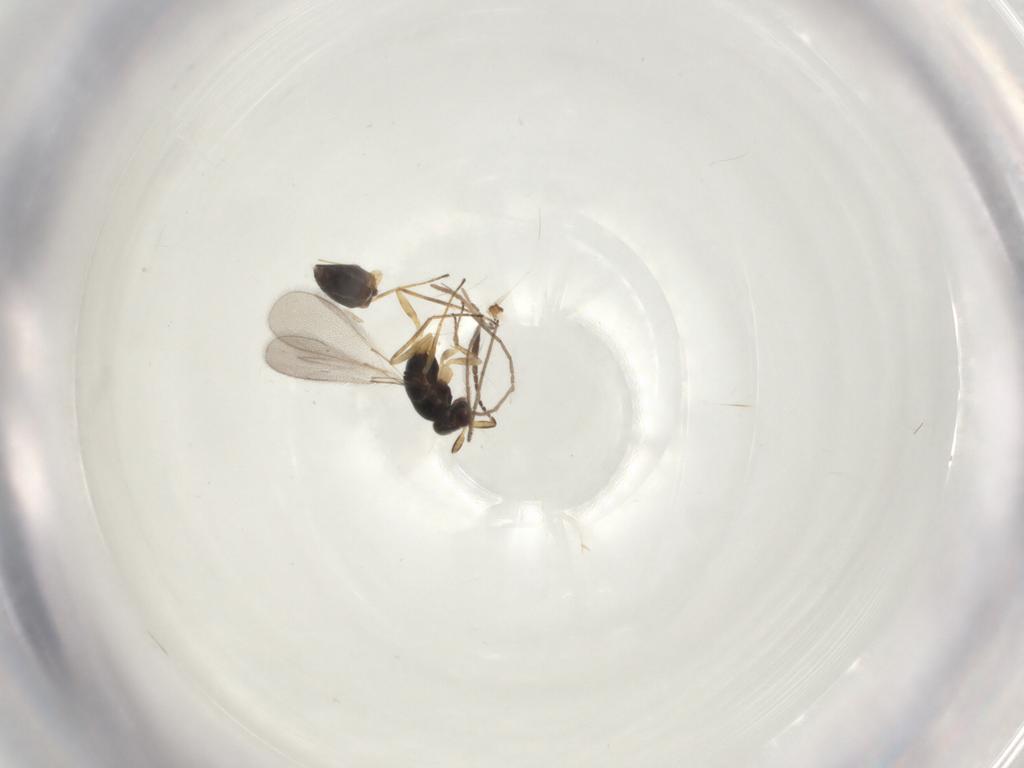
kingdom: Animalia
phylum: Arthropoda
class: Insecta
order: Hymenoptera
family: Mymaridae
